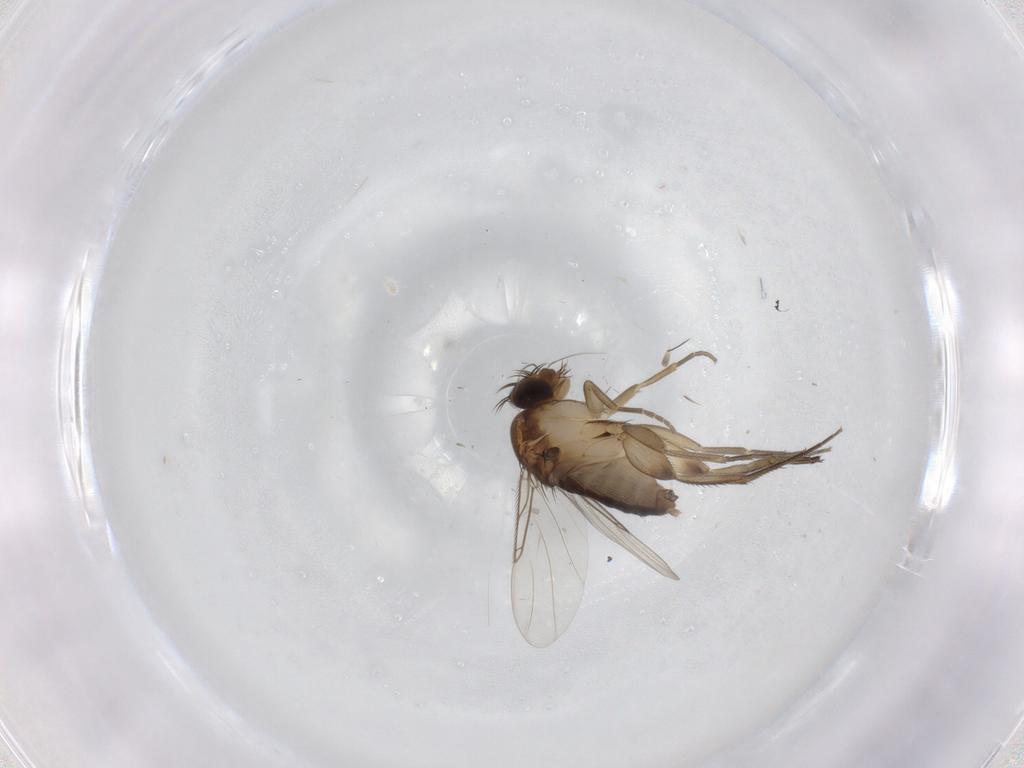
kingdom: Animalia
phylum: Arthropoda
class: Insecta
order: Diptera
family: Phoridae
